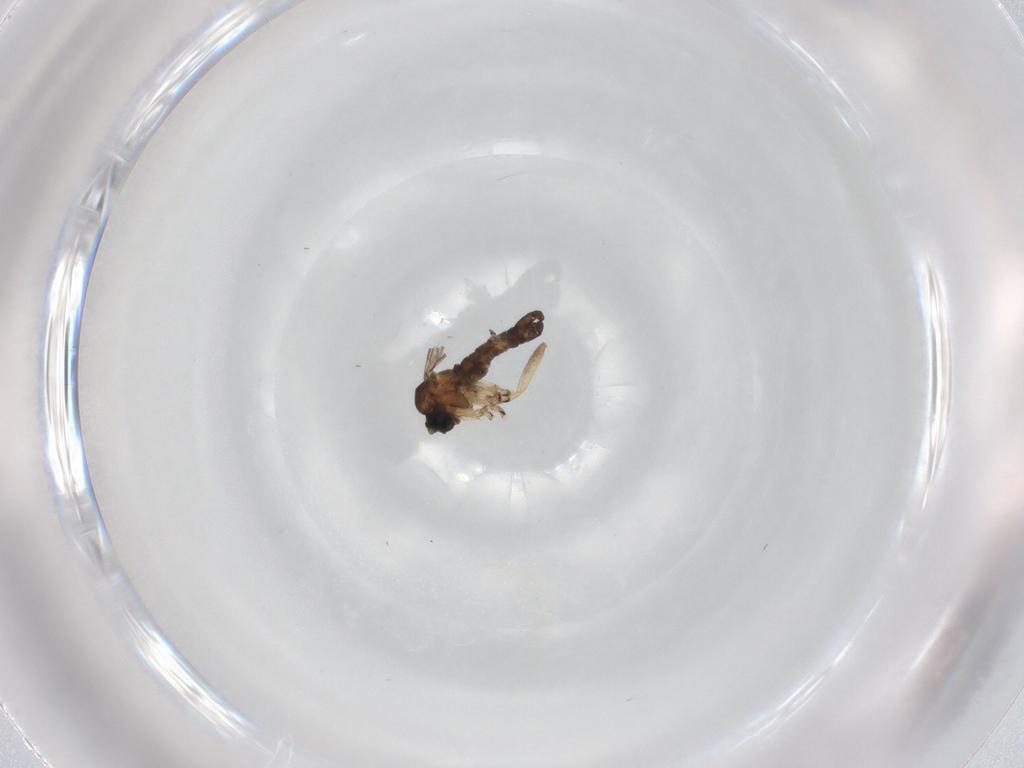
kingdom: Animalia
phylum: Arthropoda
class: Insecta
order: Diptera
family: Sciaridae
